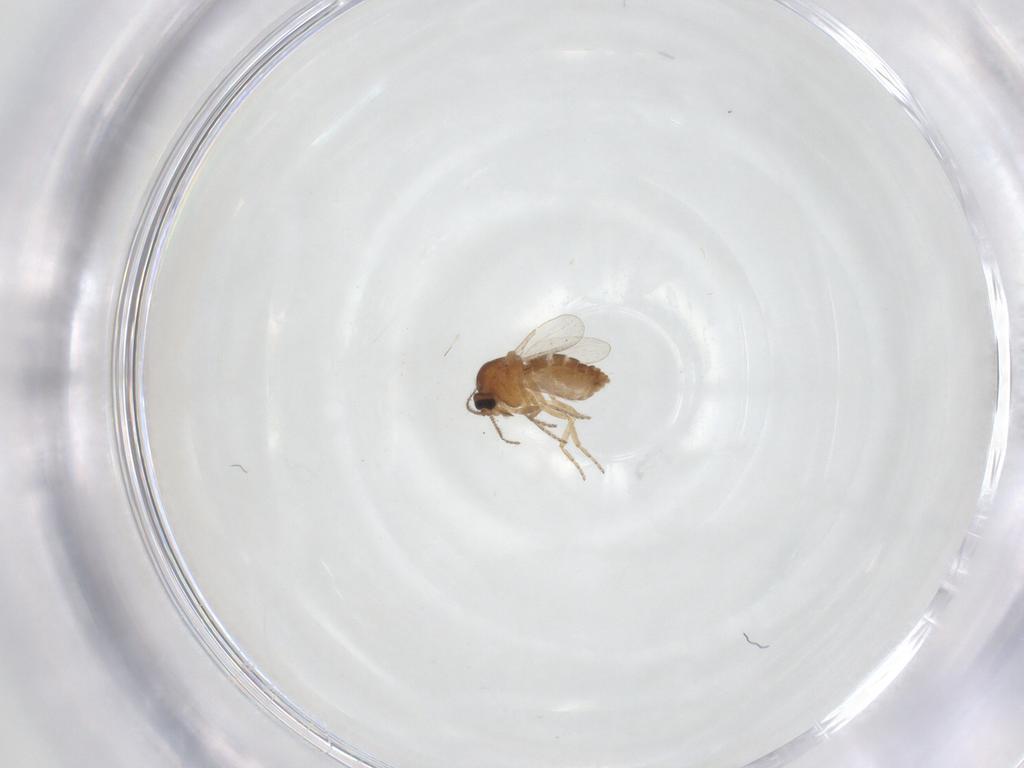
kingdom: Animalia
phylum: Arthropoda
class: Insecta
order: Diptera
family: Ceratopogonidae
